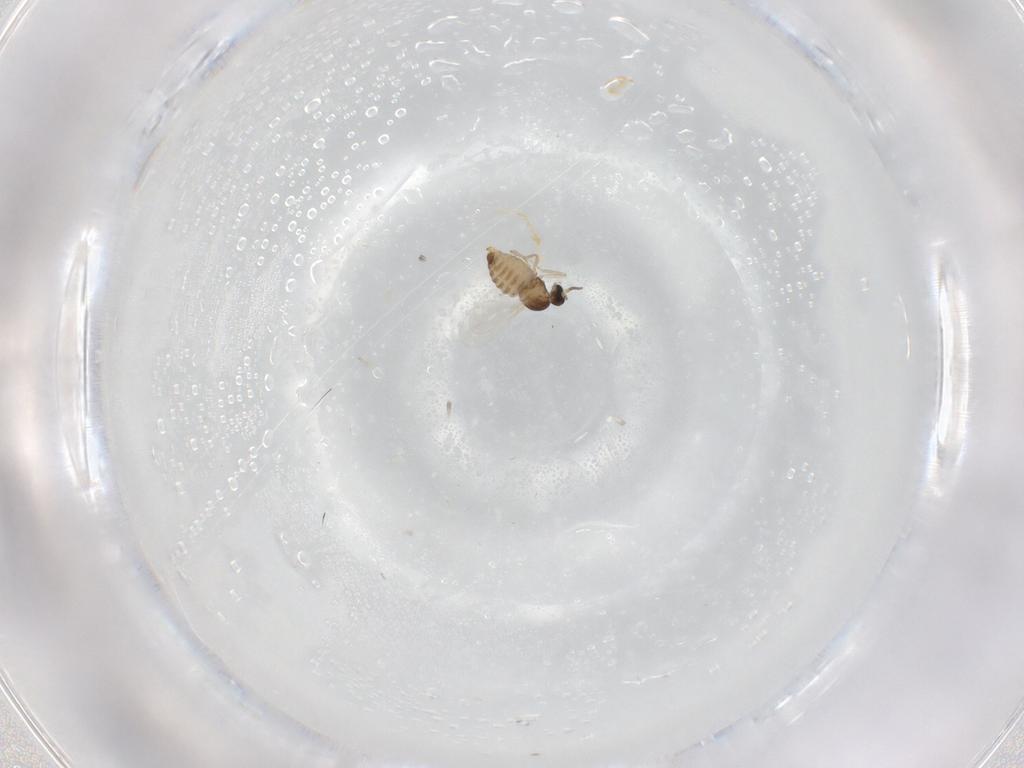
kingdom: Animalia
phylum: Arthropoda
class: Insecta
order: Diptera
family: Cecidomyiidae
